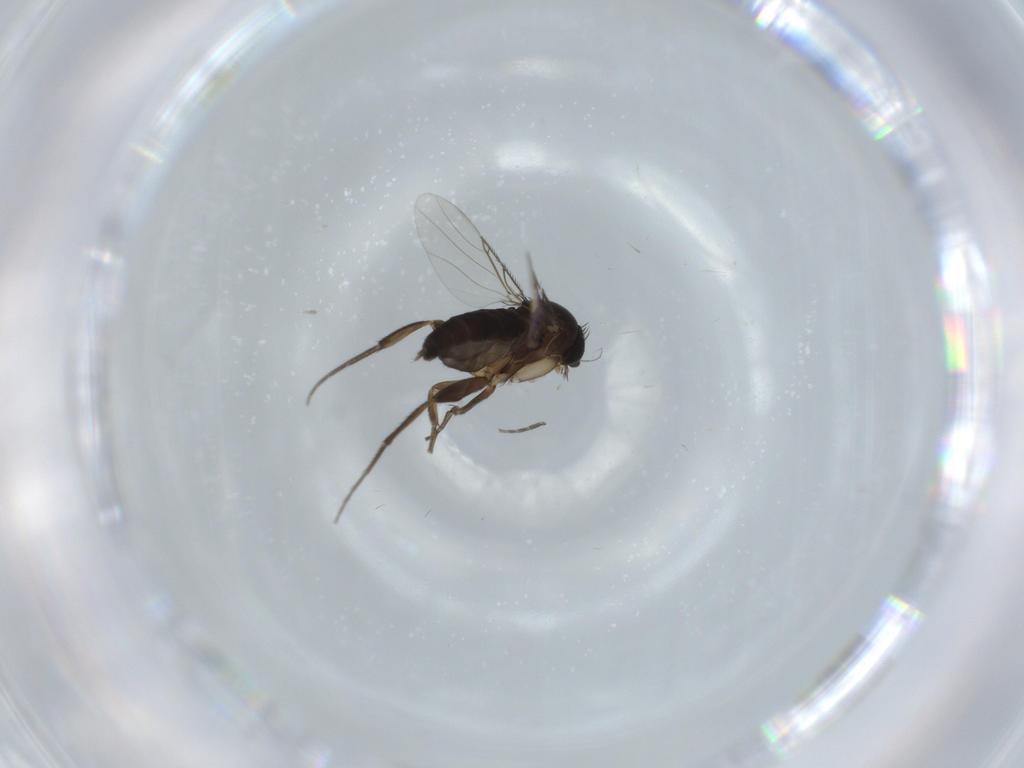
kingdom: Animalia
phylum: Arthropoda
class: Insecta
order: Diptera
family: Phoridae
